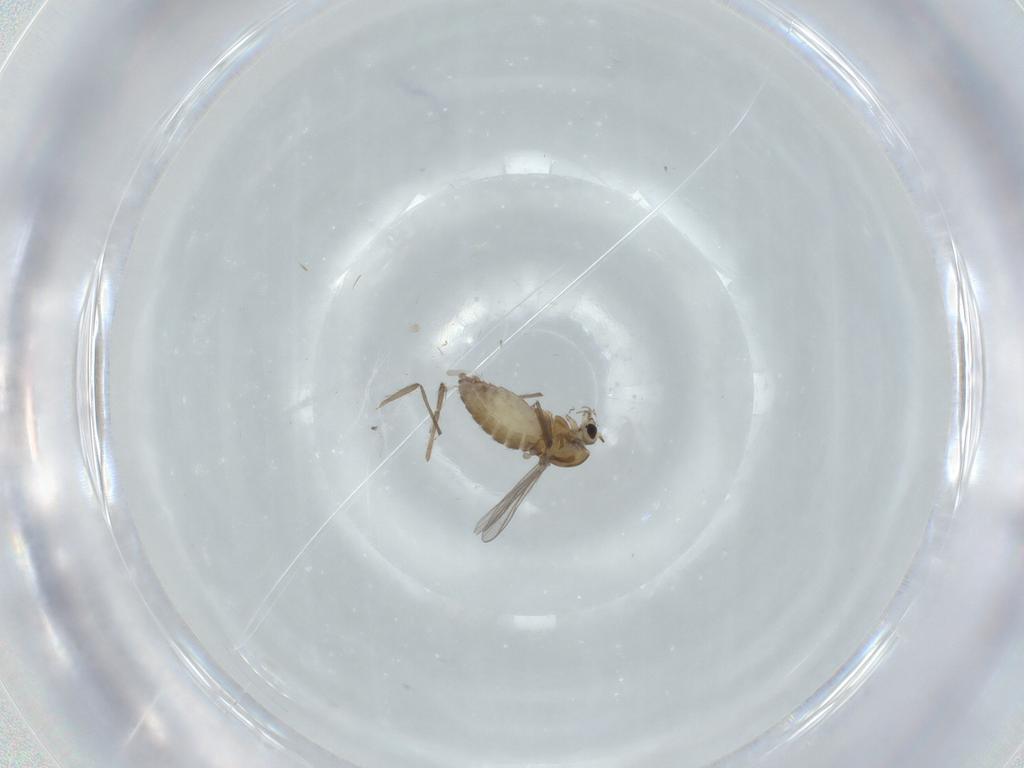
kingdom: Animalia
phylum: Arthropoda
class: Insecta
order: Diptera
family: Chironomidae
